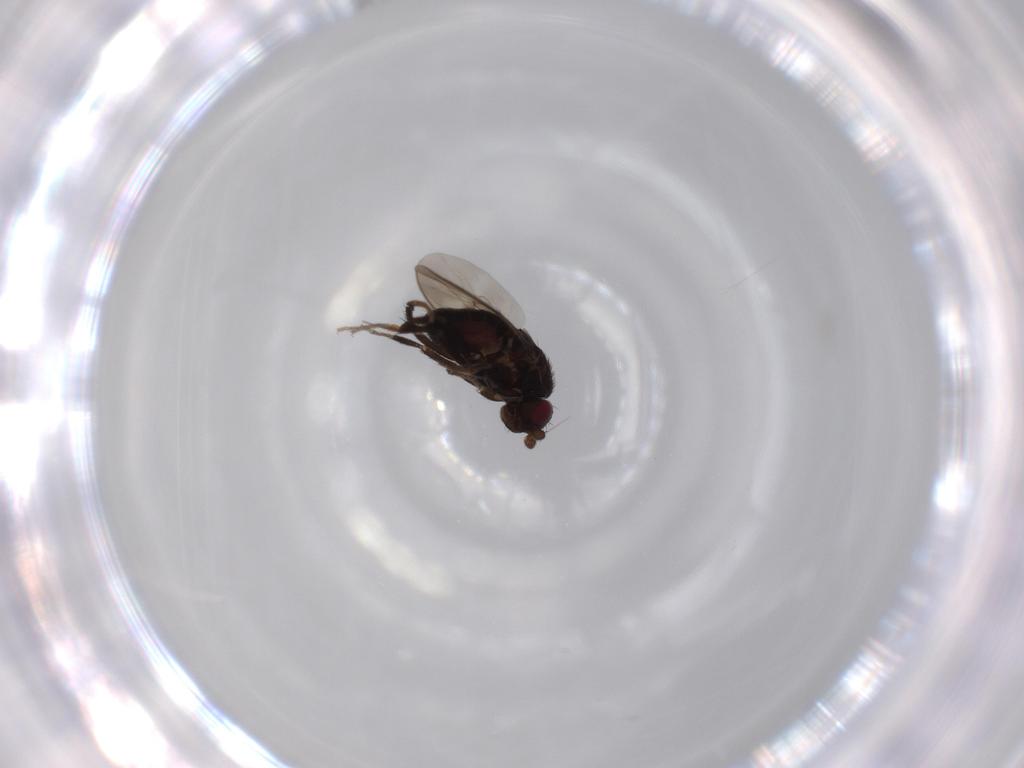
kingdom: Animalia
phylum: Arthropoda
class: Insecta
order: Diptera
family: Sphaeroceridae
